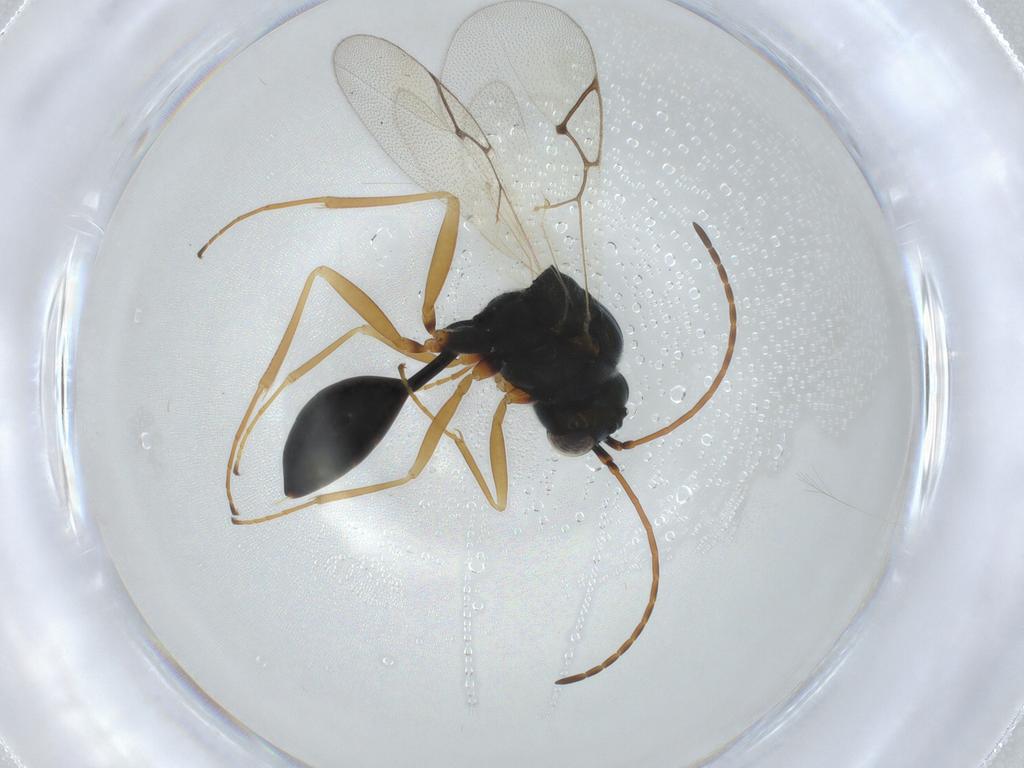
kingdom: Animalia
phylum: Arthropoda
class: Insecta
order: Hymenoptera
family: Figitidae
